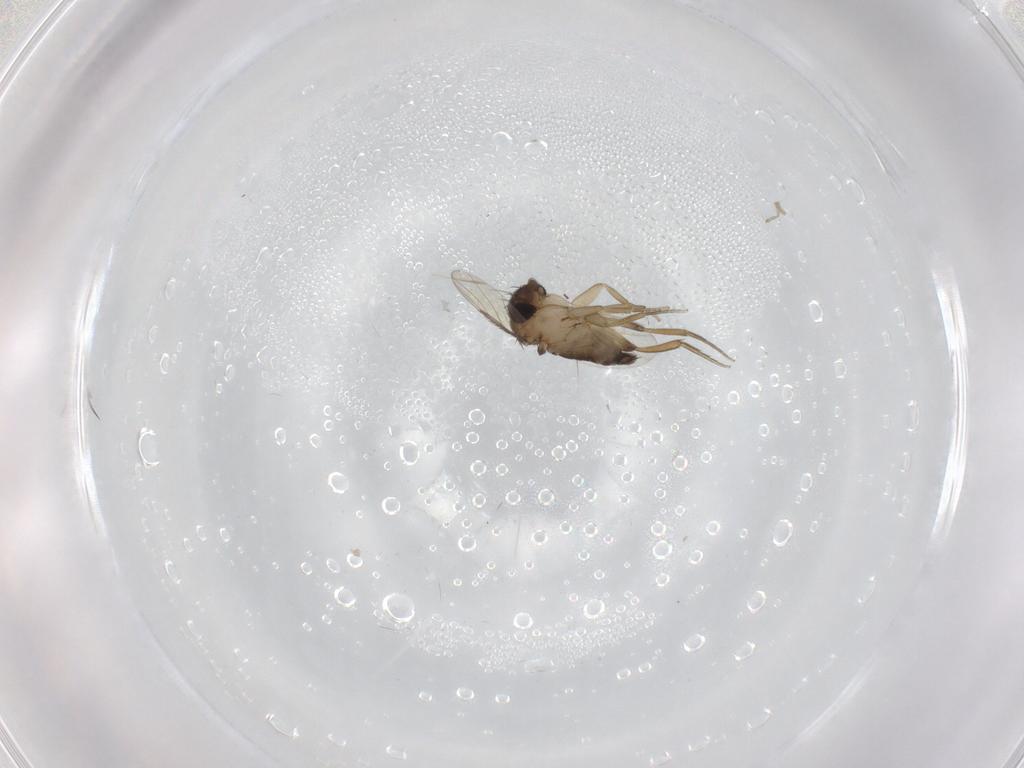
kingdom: Animalia
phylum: Arthropoda
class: Insecta
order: Diptera
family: Phoridae
